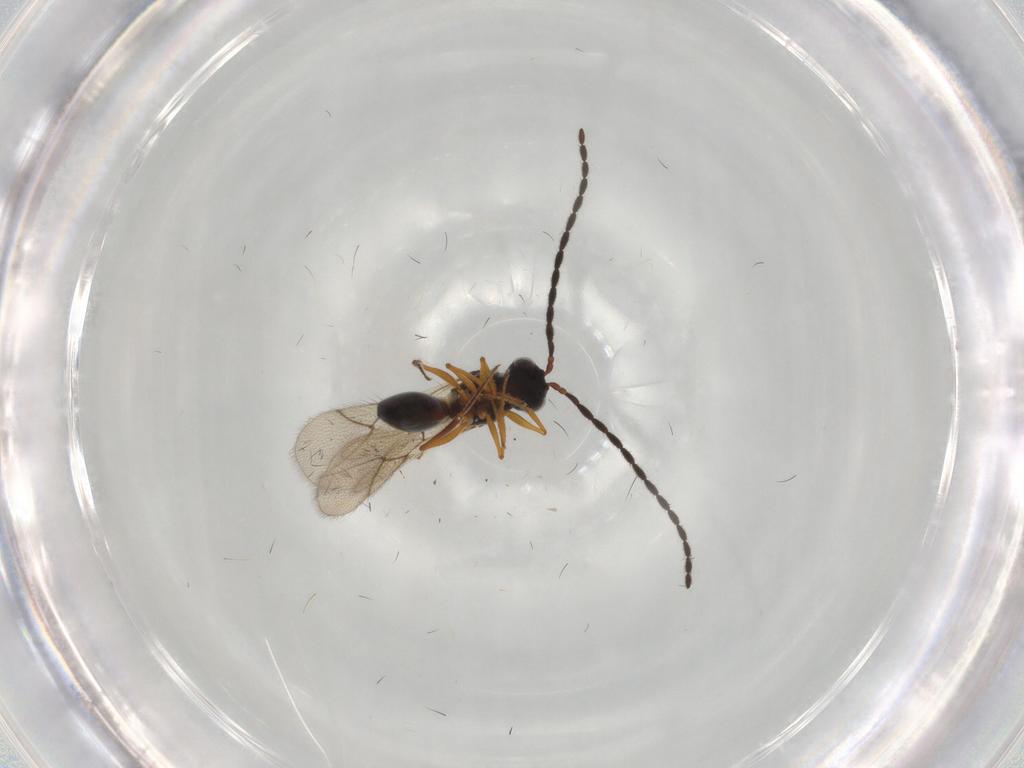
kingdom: Animalia
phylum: Arthropoda
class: Insecta
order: Hymenoptera
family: Figitidae
